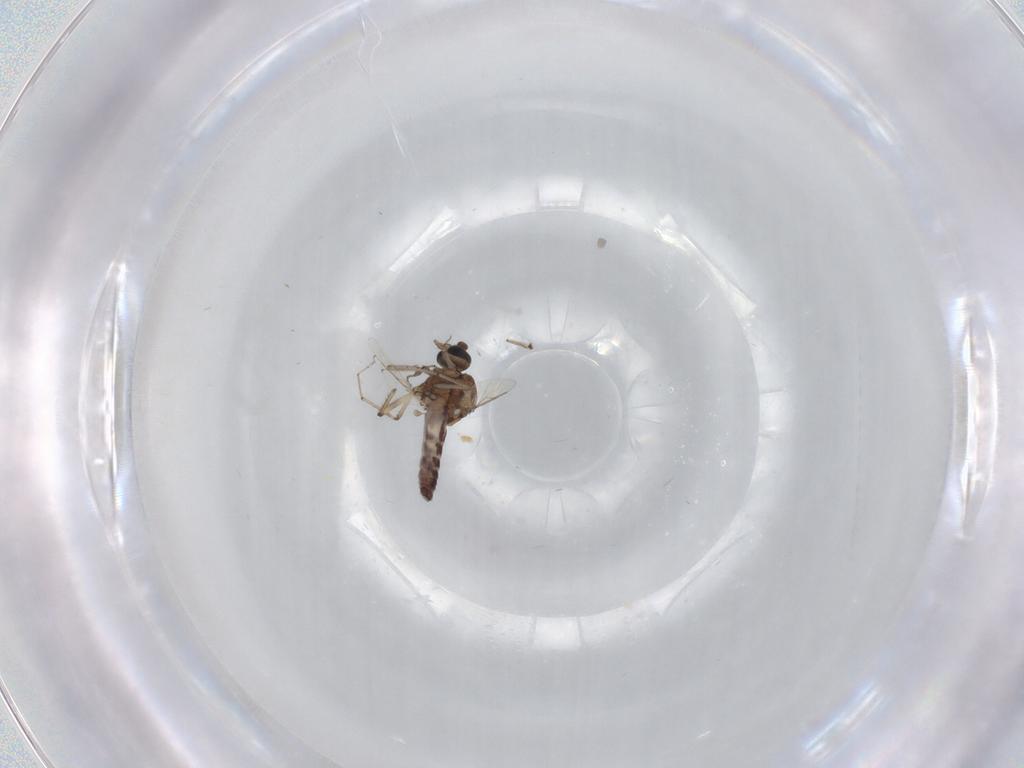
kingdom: Animalia
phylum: Arthropoda
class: Insecta
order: Diptera
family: Ceratopogonidae
